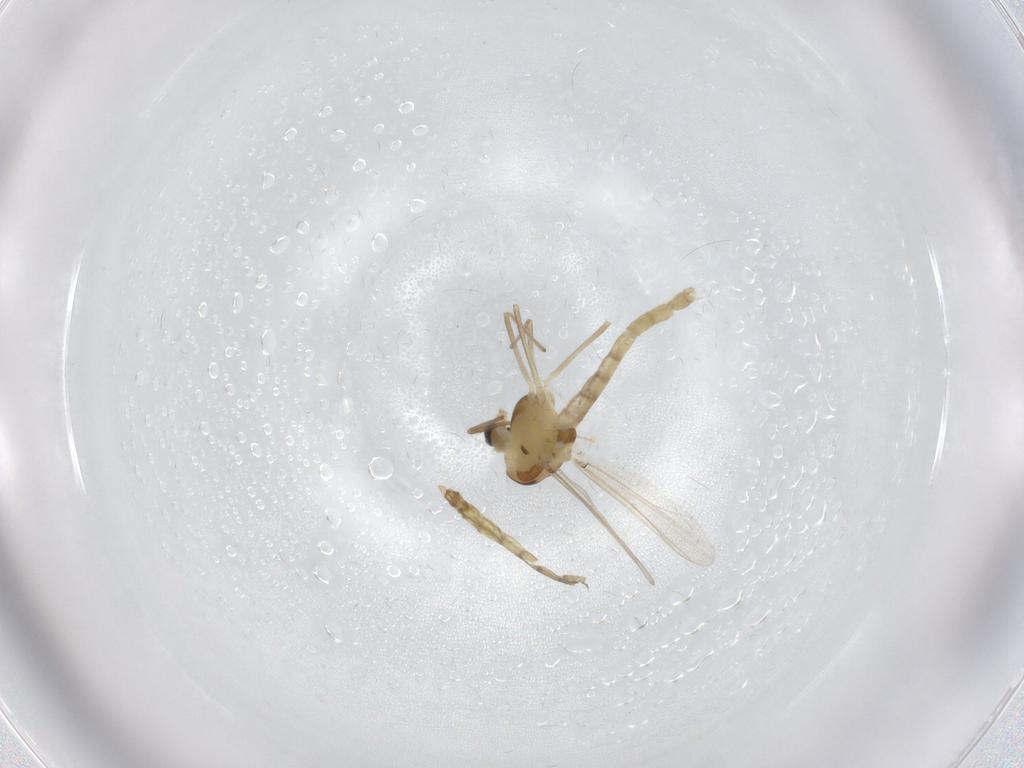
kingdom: Animalia
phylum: Arthropoda
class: Insecta
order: Diptera
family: Chironomidae
